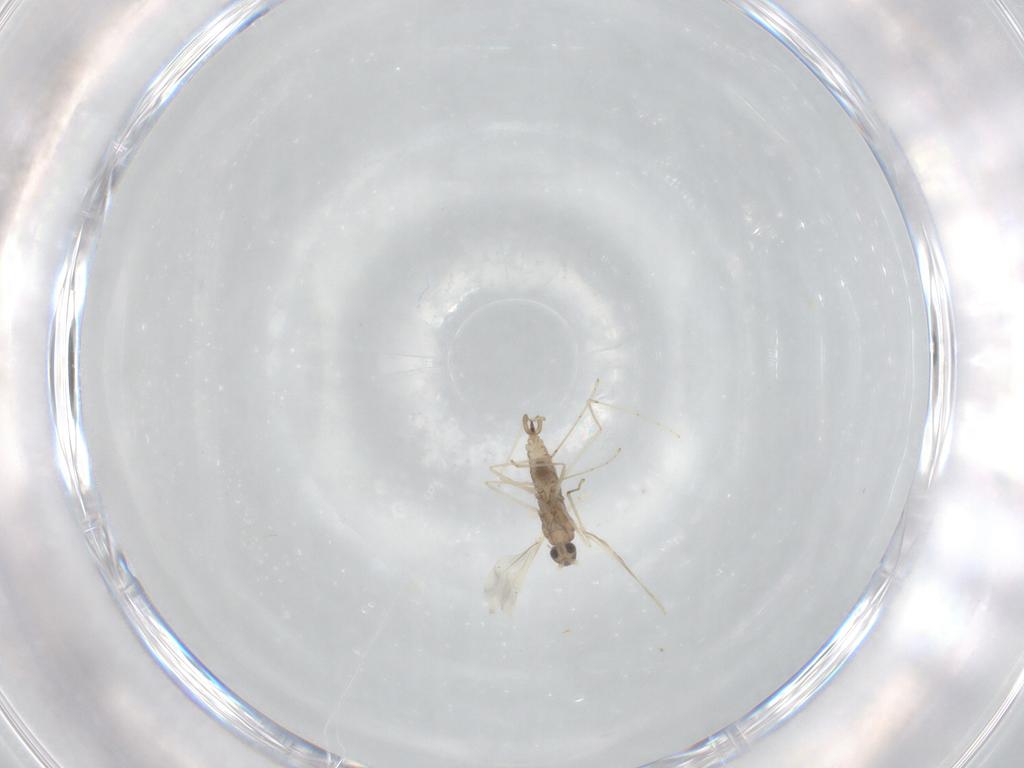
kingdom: Animalia
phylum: Arthropoda
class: Insecta
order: Diptera
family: Cecidomyiidae
